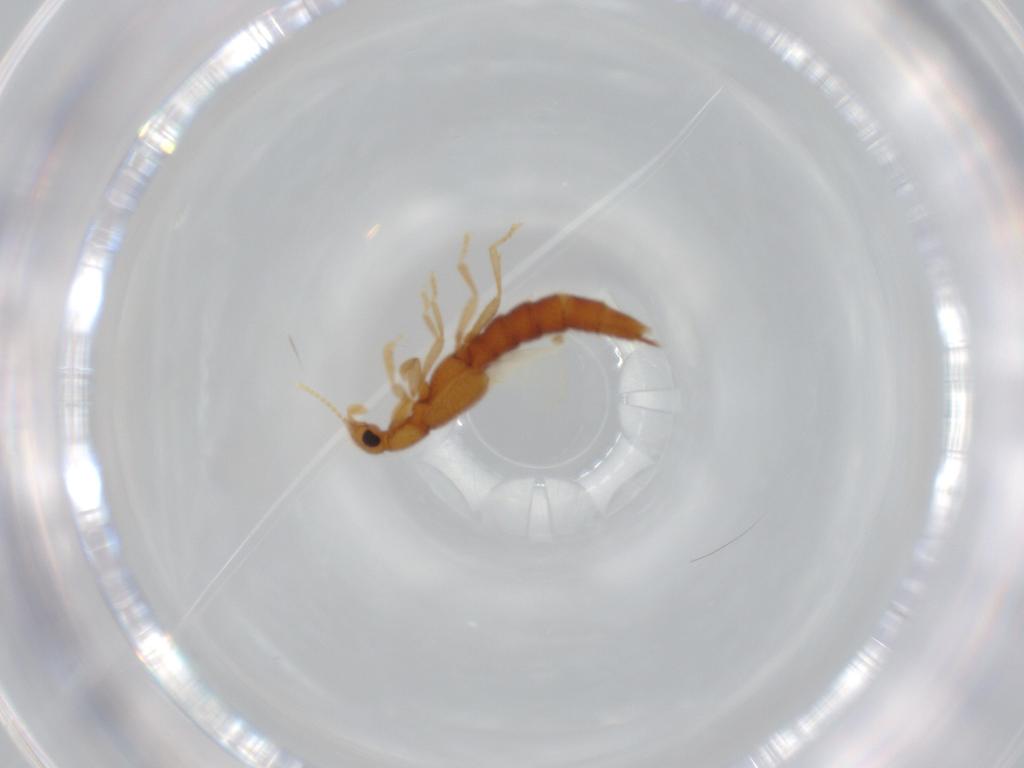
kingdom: Animalia
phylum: Arthropoda
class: Insecta
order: Coleoptera
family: Staphylinidae
